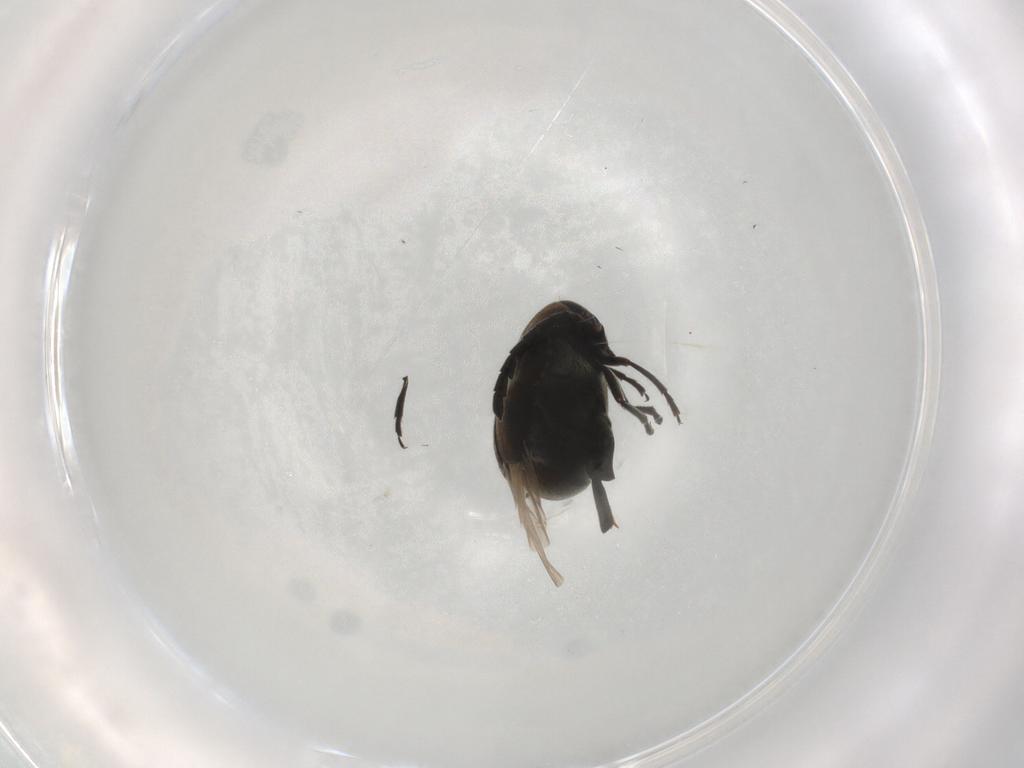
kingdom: Animalia
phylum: Arthropoda
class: Insecta
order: Coleoptera
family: Chrysomelidae
